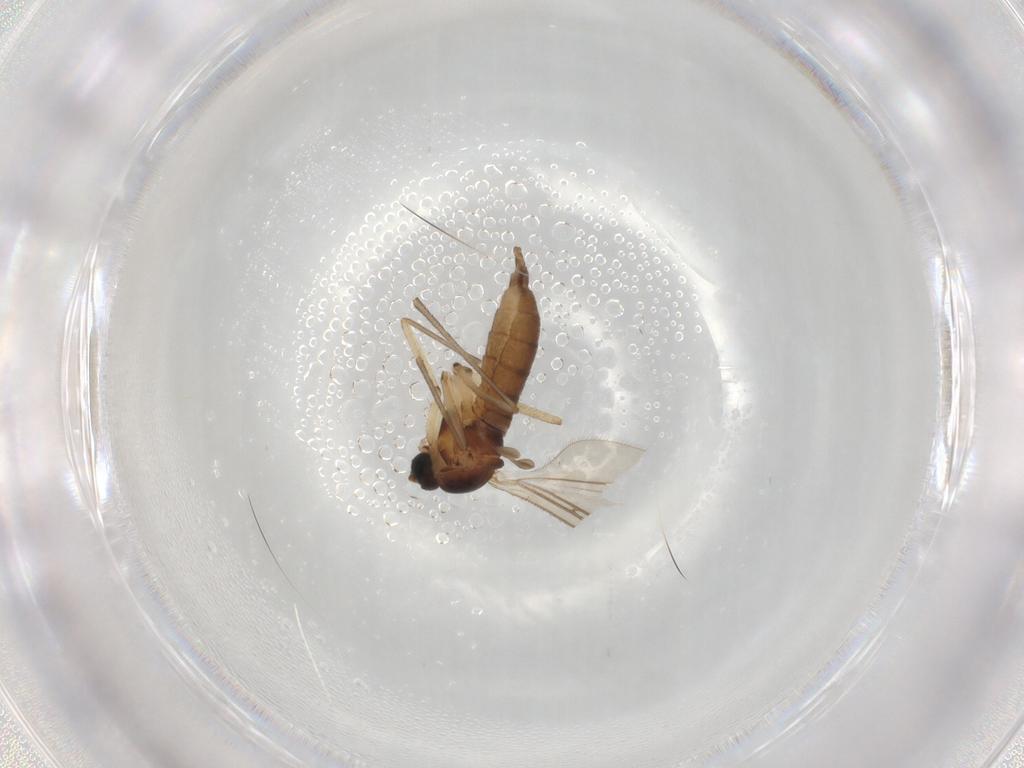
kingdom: Animalia
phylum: Arthropoda
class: Insecta
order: Diptera
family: Sciaridae
